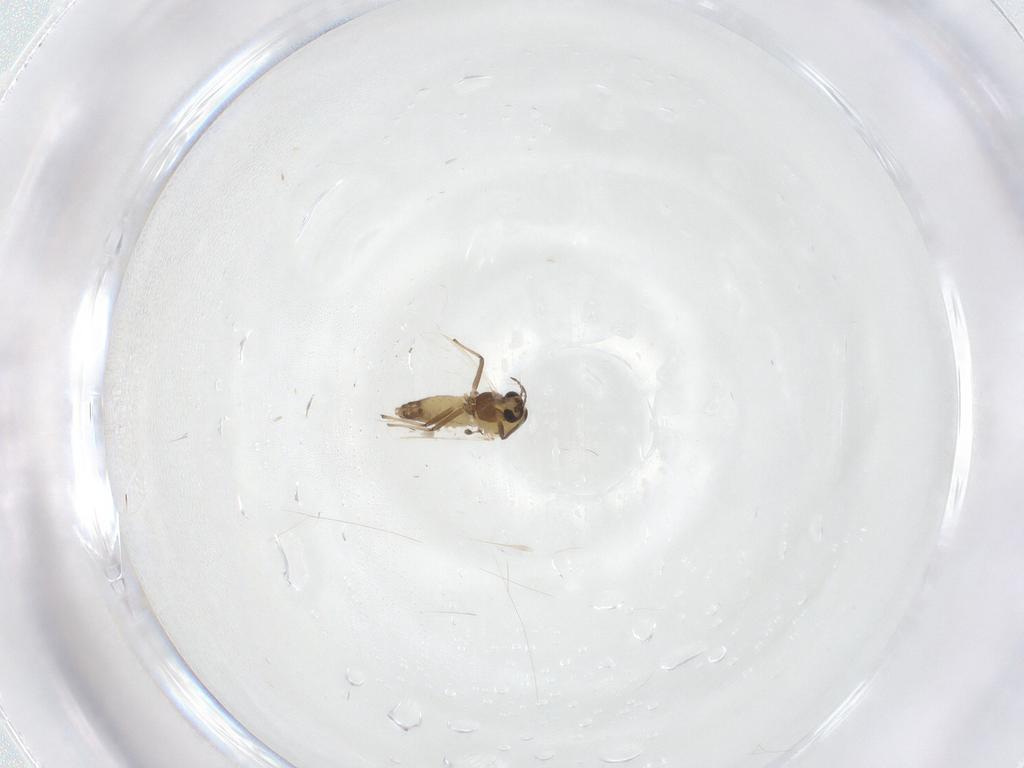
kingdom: Animalia
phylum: Arthropoda
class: Insecta
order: Diptera
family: Chironomidae
